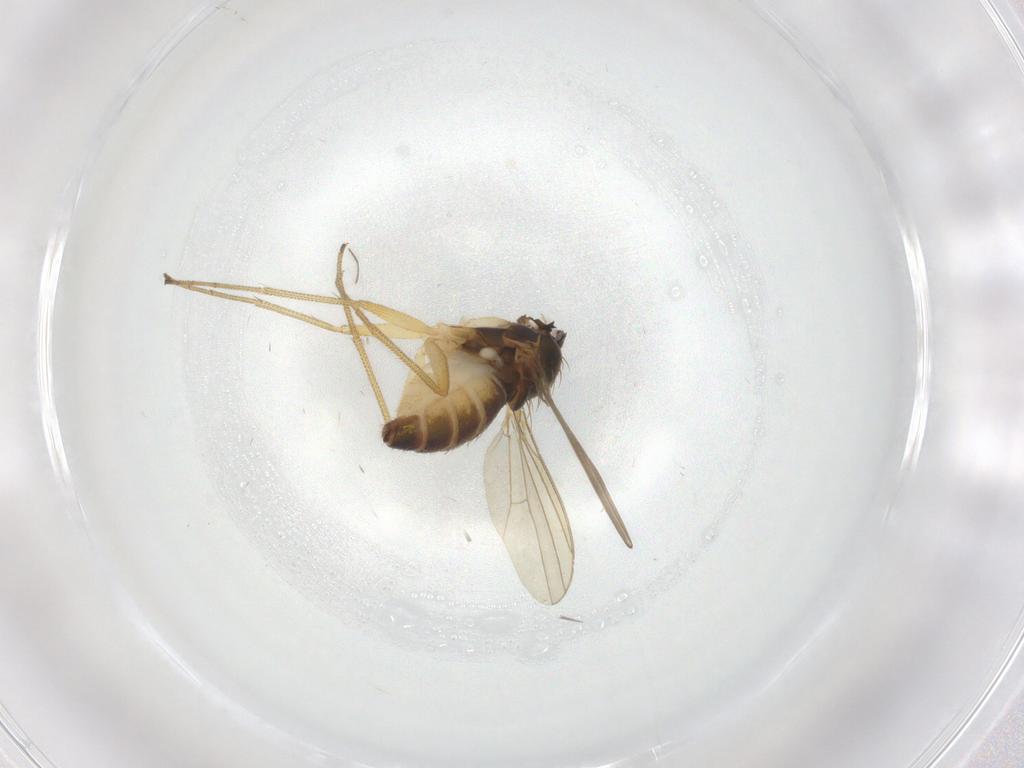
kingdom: Animalia
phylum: Arthropoda
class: Insecta
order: Diptera
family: Dolichopodidae
